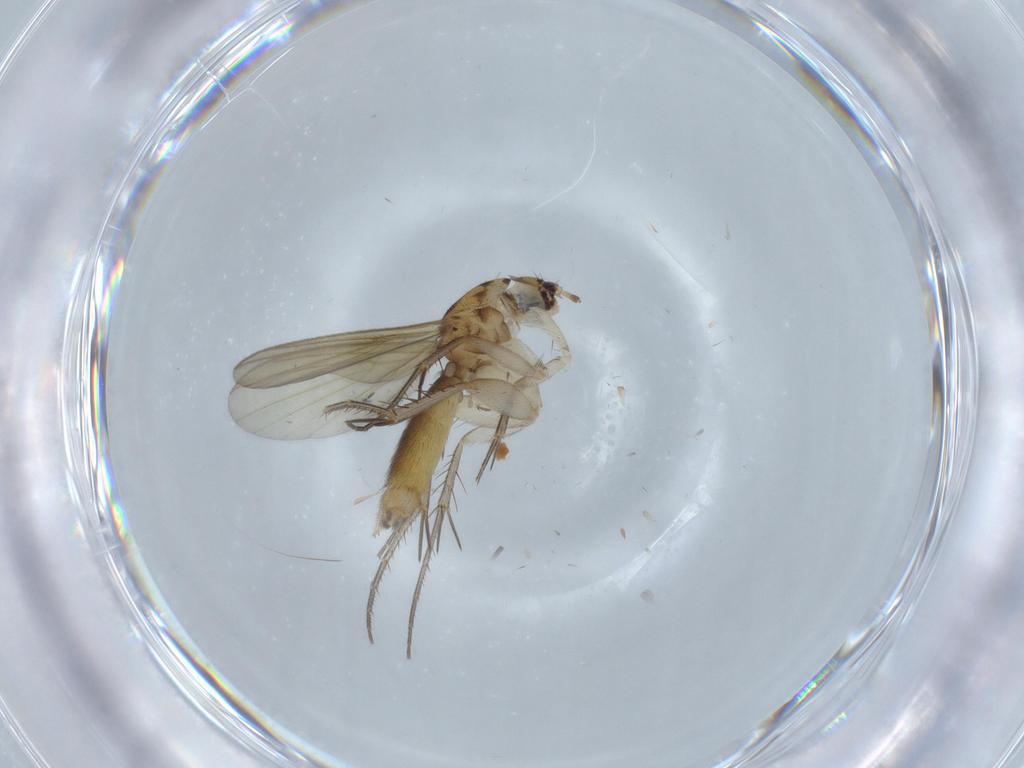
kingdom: Animalia
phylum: Arthropoda
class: Insecta
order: Diptera
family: Mycetophilidae
